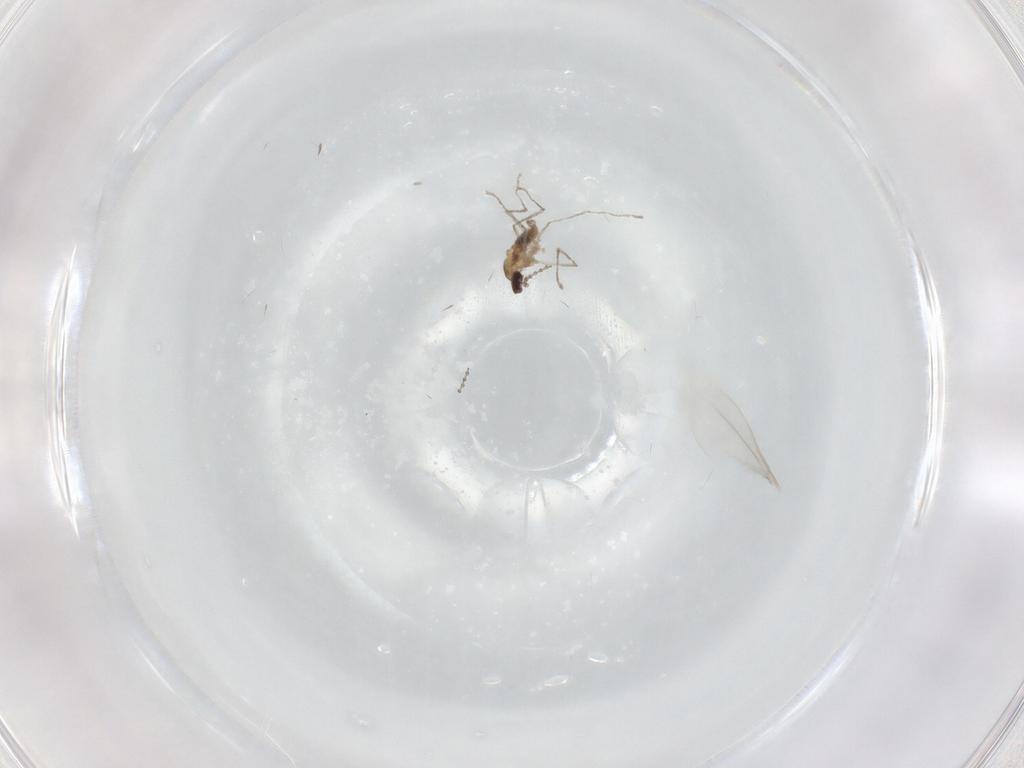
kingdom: Animalia
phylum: Arthropoda
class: Insecta
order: Diptera
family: Cecidomyiidae
